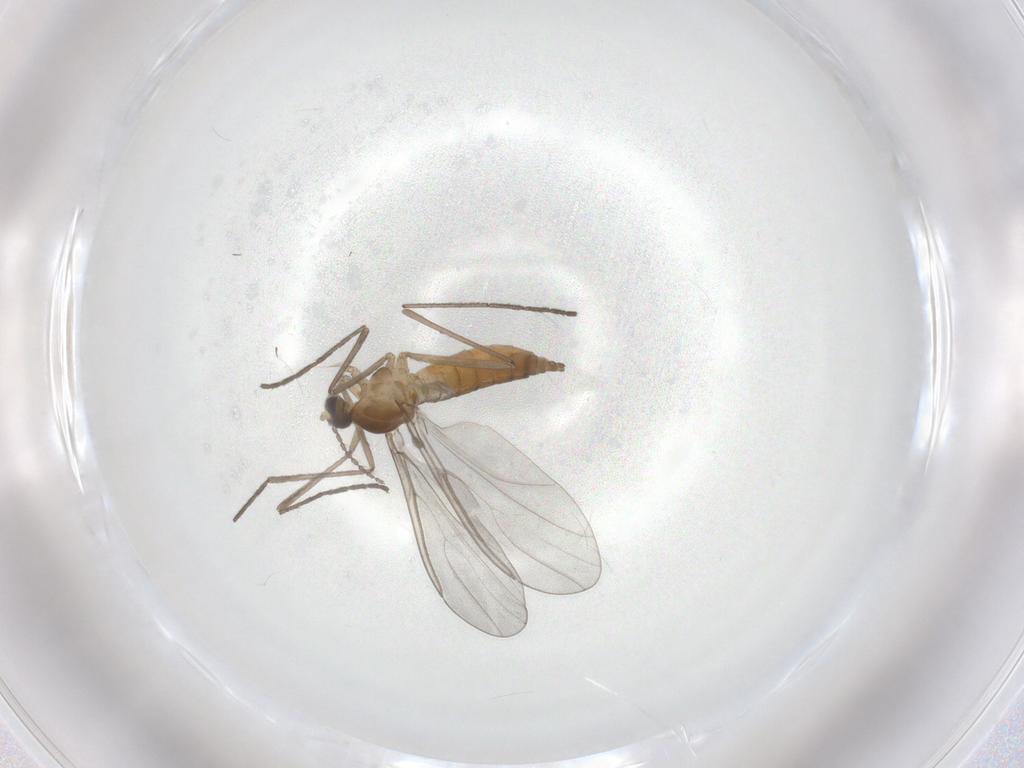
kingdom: Animalia
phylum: Arthropoda
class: Insecta
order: Diptera
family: Cecidomyiidae
